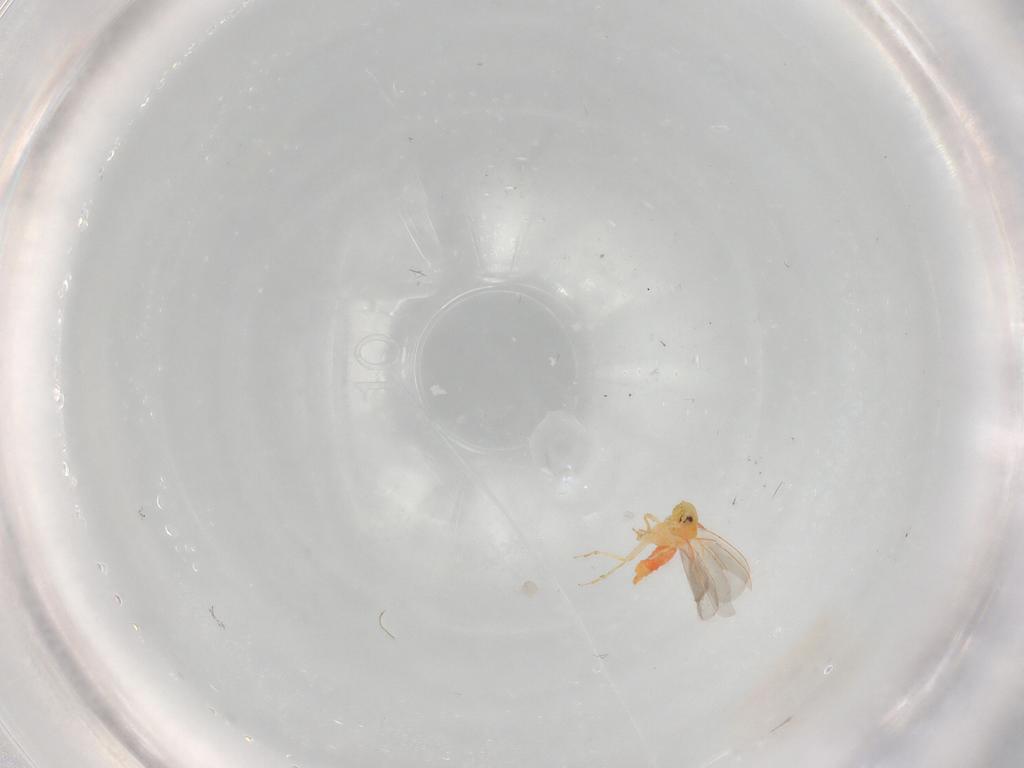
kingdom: Animalia
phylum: Arthropoda
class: Insecta
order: Hemiptera
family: Aleyrodidae
